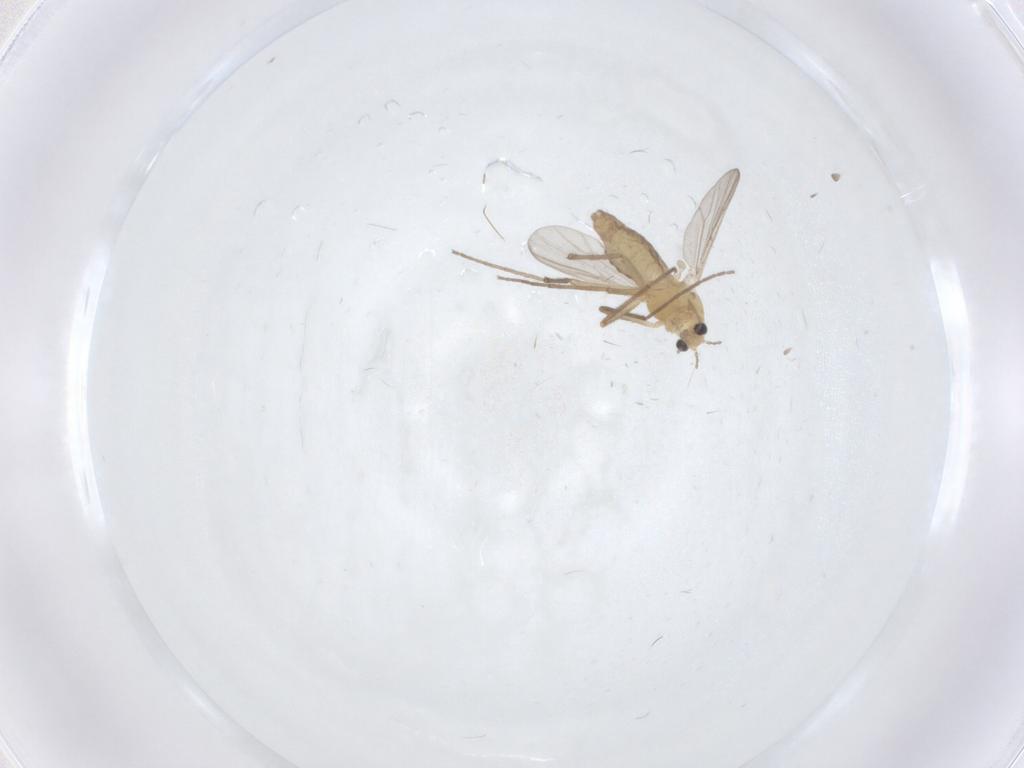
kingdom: Animalia
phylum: Arthropoda
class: Insecta
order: Diptera
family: Chironomidae
